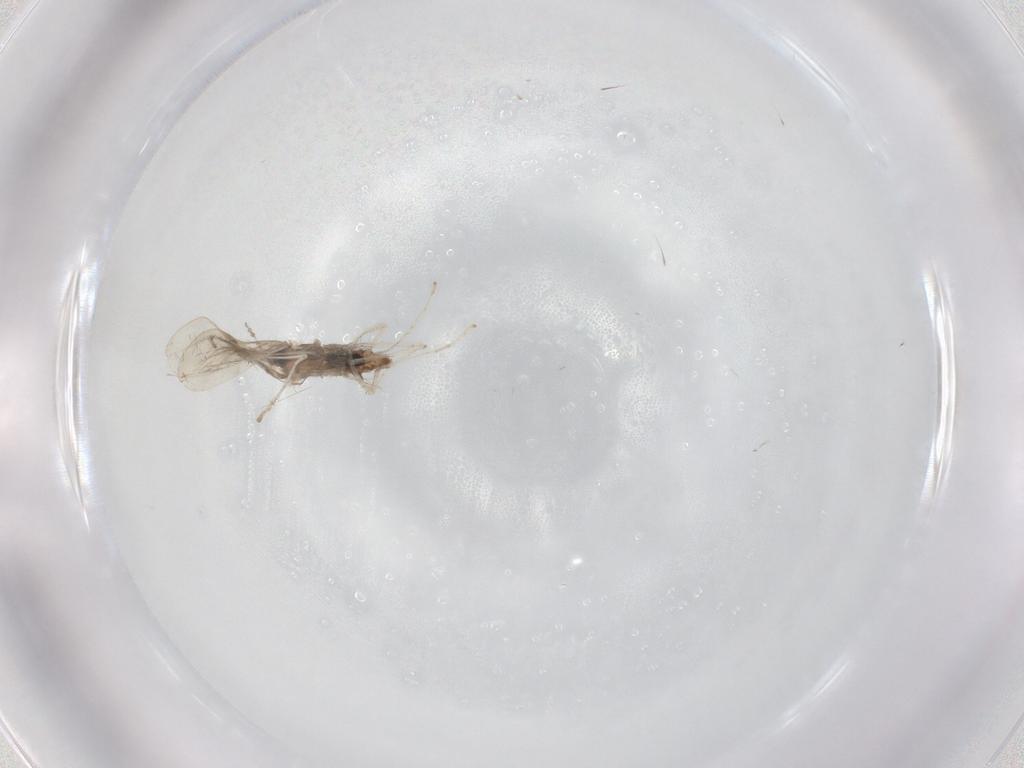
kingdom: Animalia
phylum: Arthropoda
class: Insecta
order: Diptera
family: Cecidomyiidae
